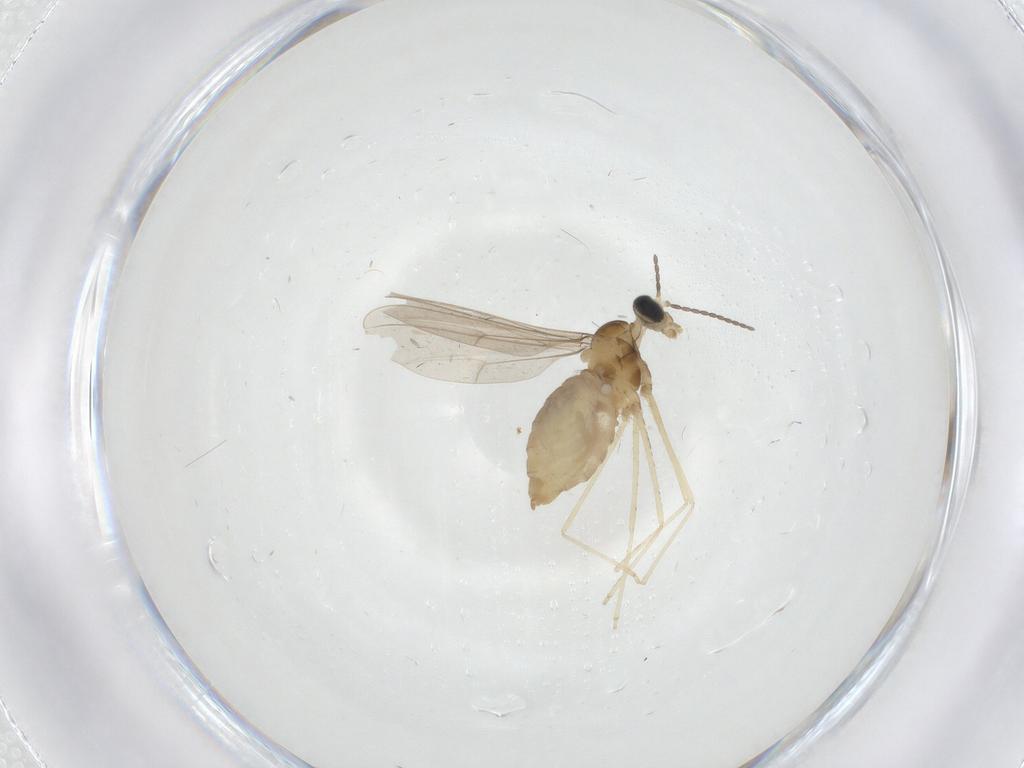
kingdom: Animalia
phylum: Arthropoda
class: Insecta
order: Diptera
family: Cecidomyiidae
